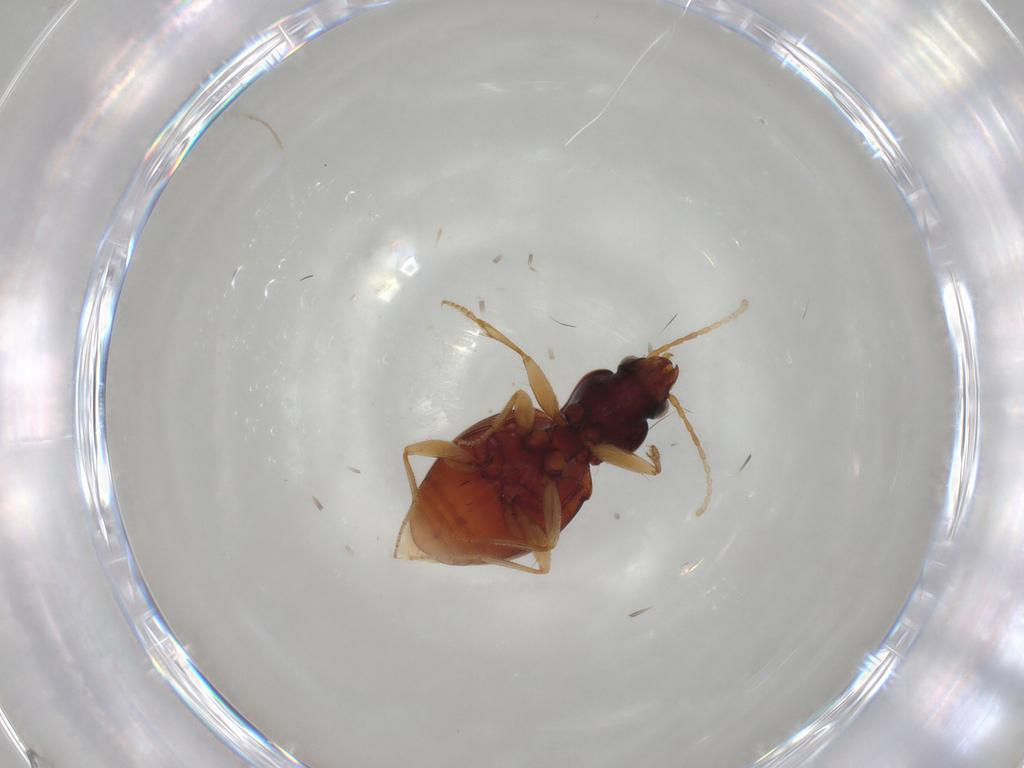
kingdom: Animalia
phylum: Arthropoda
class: Insecta
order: Coleoptera
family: Carabidae
